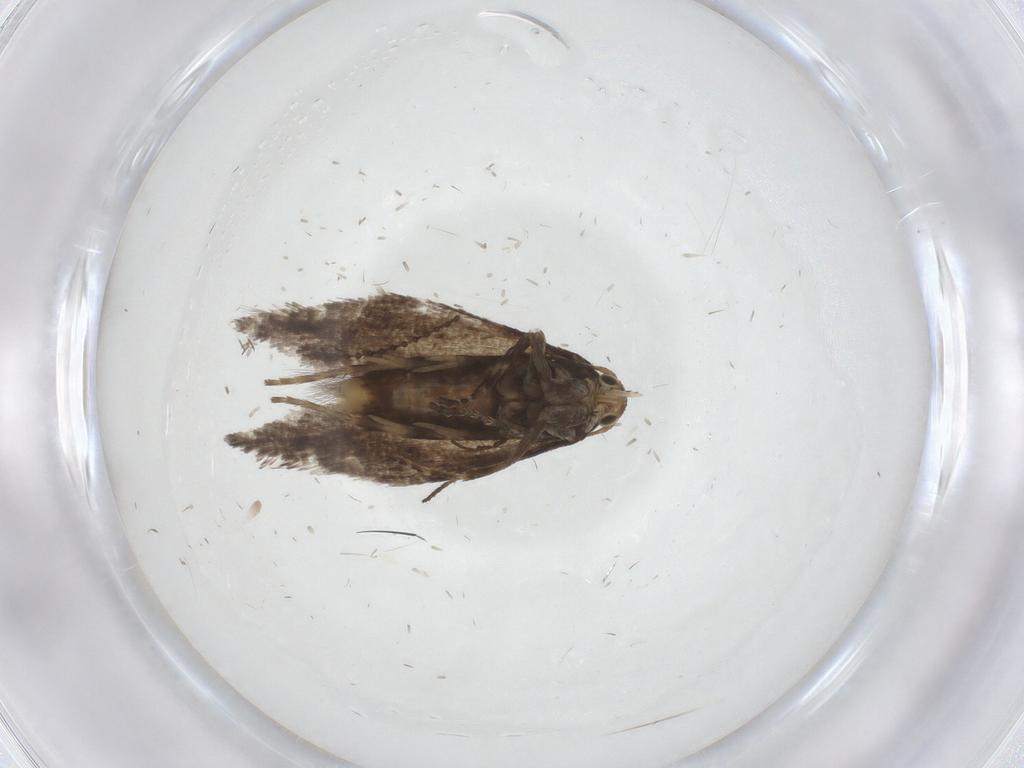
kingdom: Animalia
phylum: Arthropoda
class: Insecta
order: Lepidoptera
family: Glyphipterigidae
